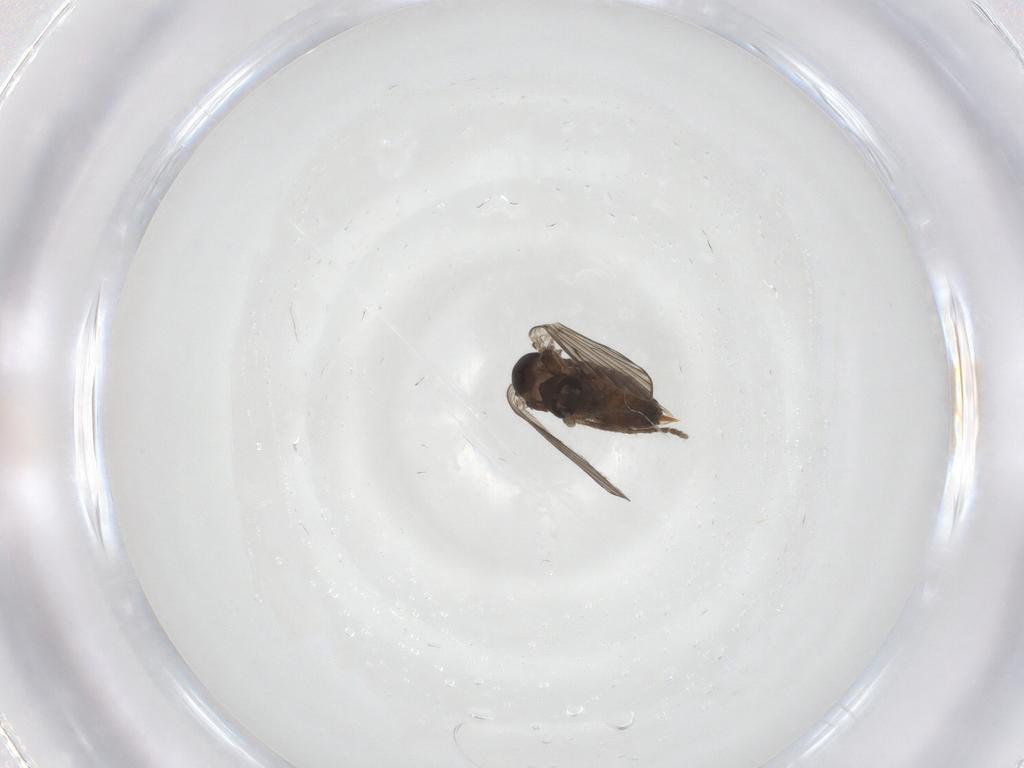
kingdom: Animalia
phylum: Arthropoda
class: Insecta
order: Diptera
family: Psychodidae
